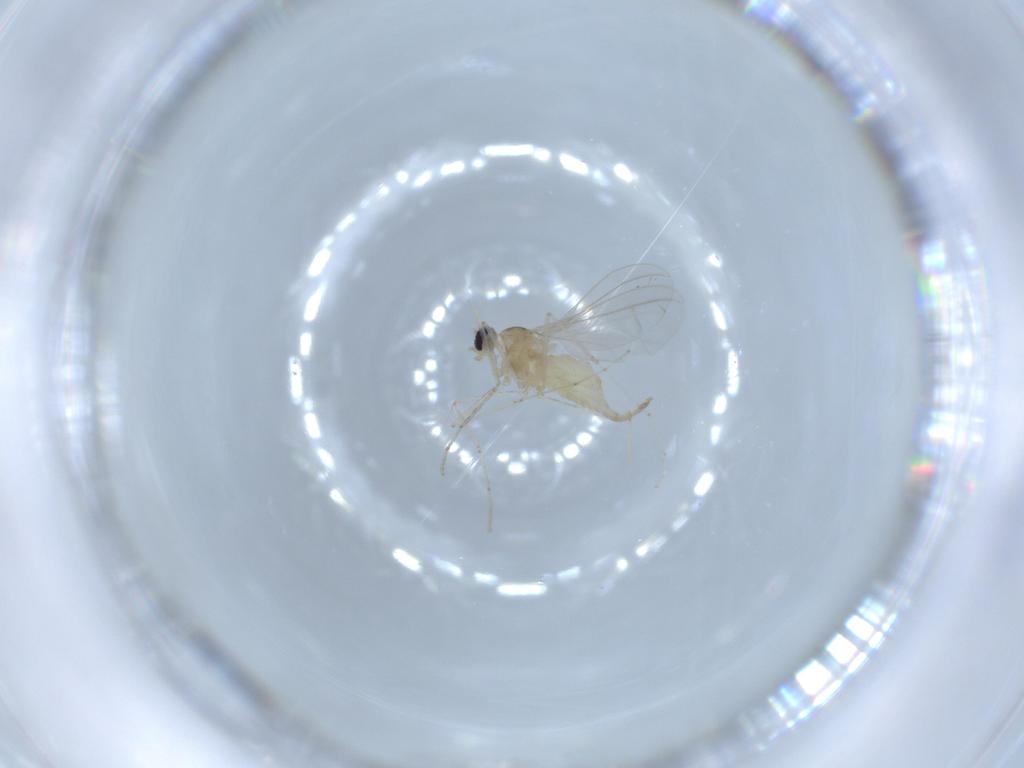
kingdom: Animalia
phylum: Arthropoda
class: Insecta
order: Diptera
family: Cecidomyiidae
